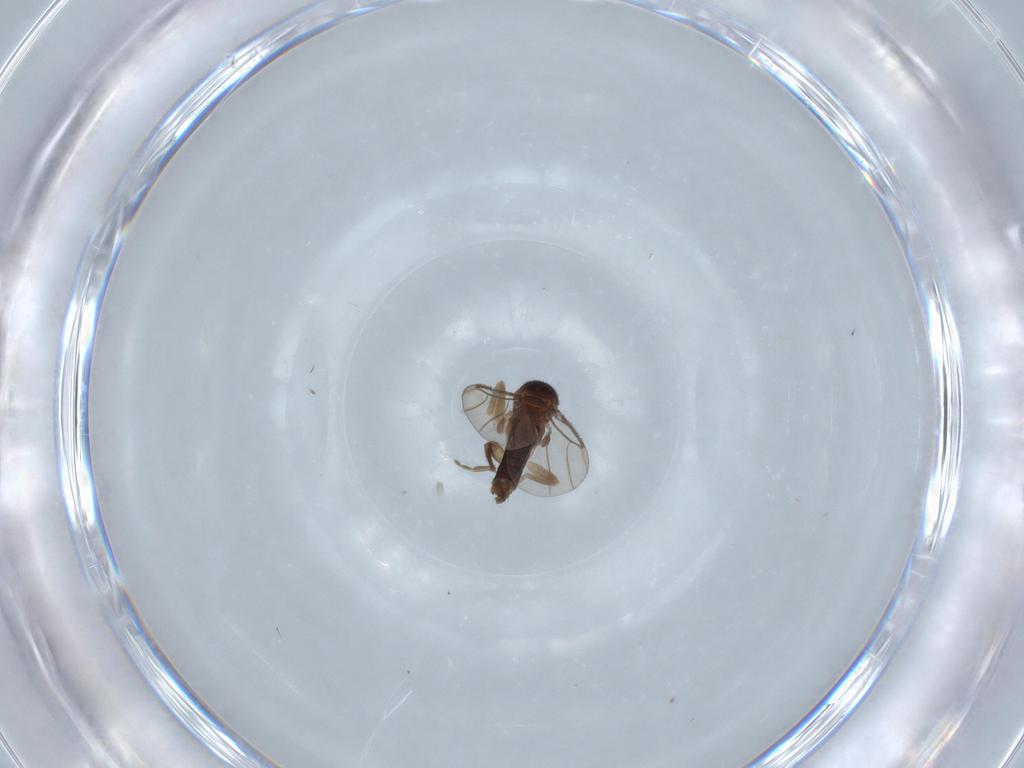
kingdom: Animalia
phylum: Arthropoda
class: Insecta
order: Diptera
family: Phoridae
